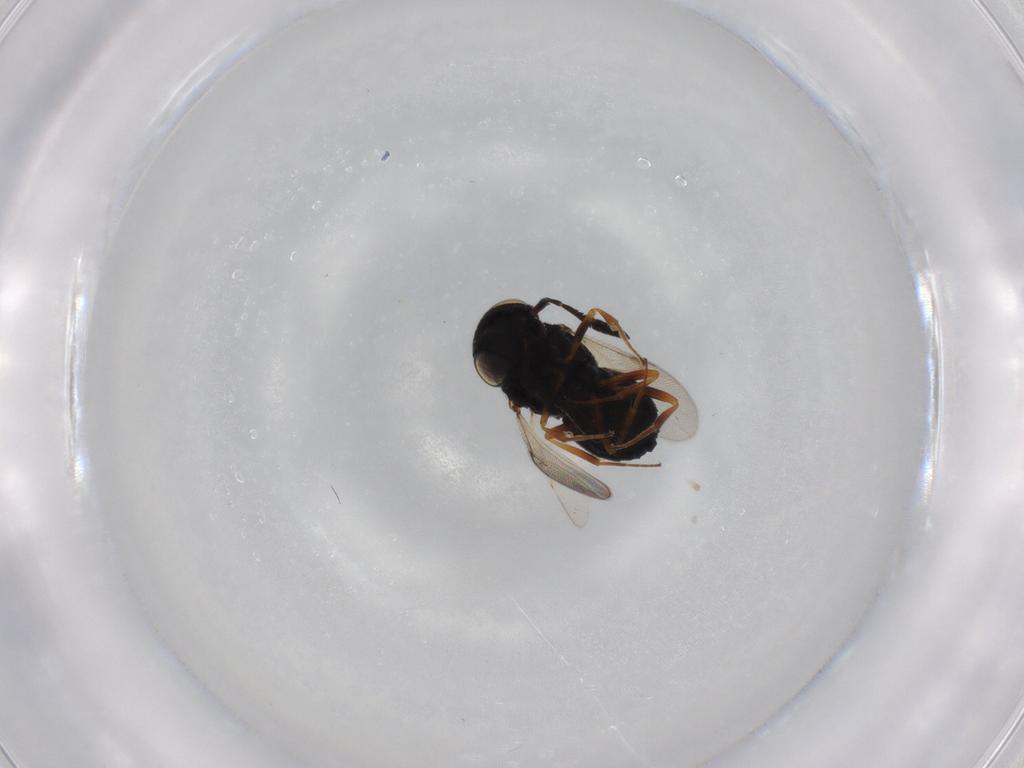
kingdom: Animalia
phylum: Arthropoda
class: Insecta
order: Hymenoptera
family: Scelionidae
